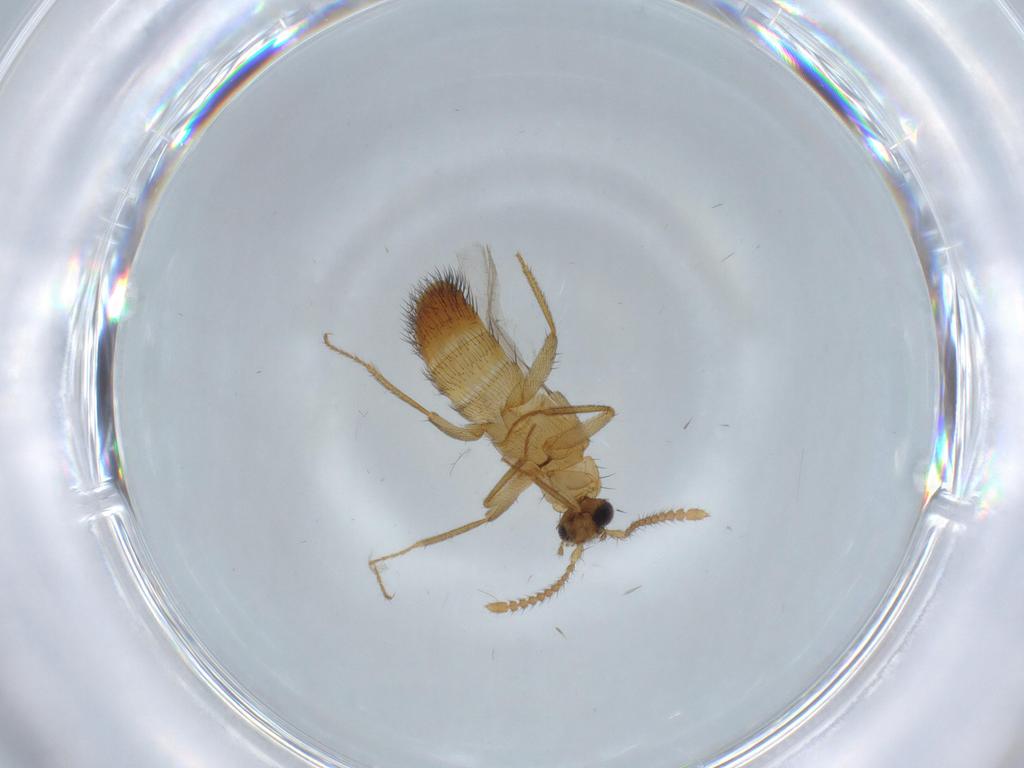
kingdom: Animalia
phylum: Arthropoda
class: Insecta
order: Coleoptera
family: Staphylinidae
